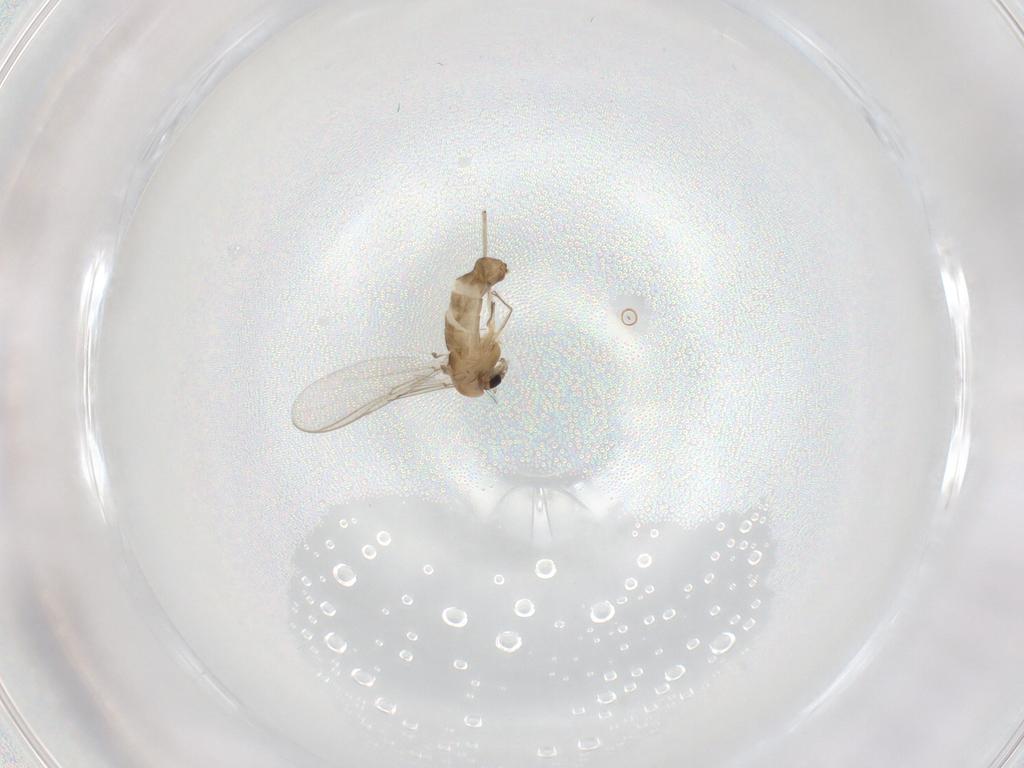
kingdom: Animalia
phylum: Arthropoda
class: Insecta
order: Diptera
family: Chironomidae
